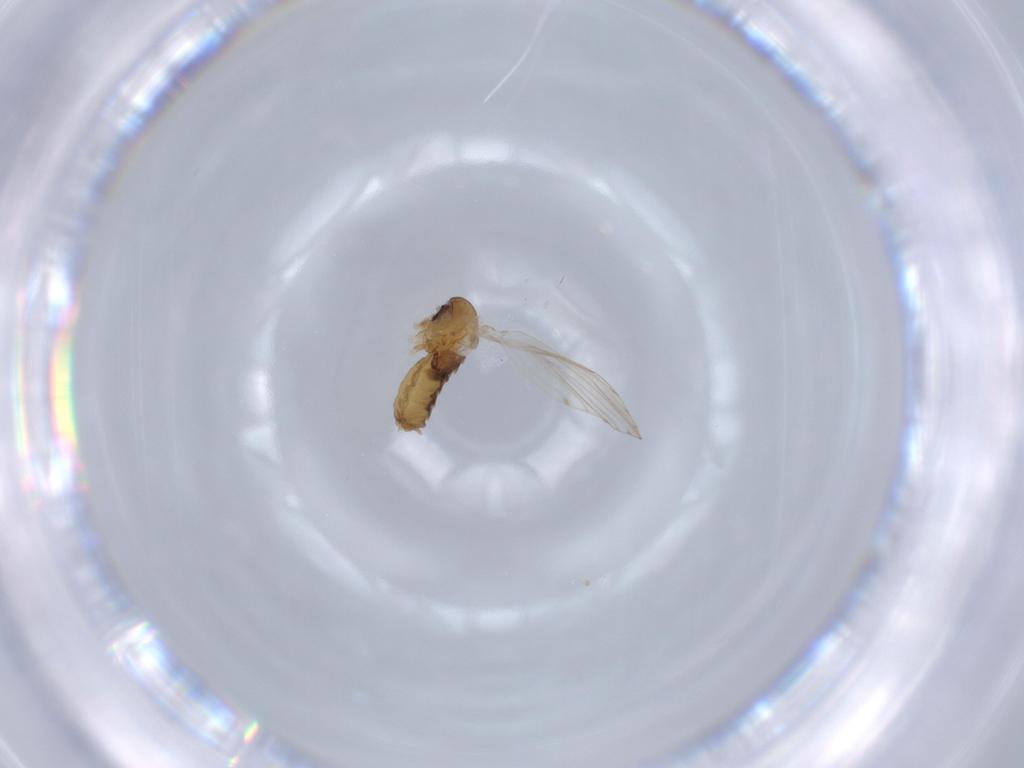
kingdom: Animalia
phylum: Arthropoda
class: Insecta
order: Diptera
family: Psychodidae
